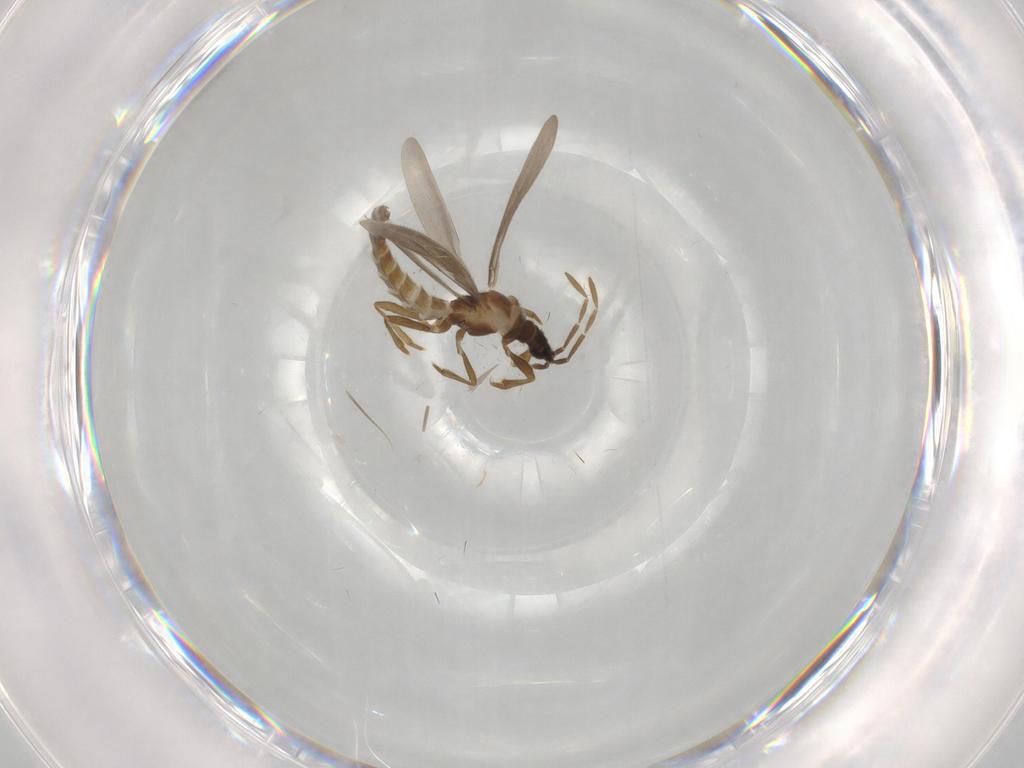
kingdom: Animalia
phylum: Arthropoda
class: Insecta
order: Hemiptera
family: Enicocephalidae
